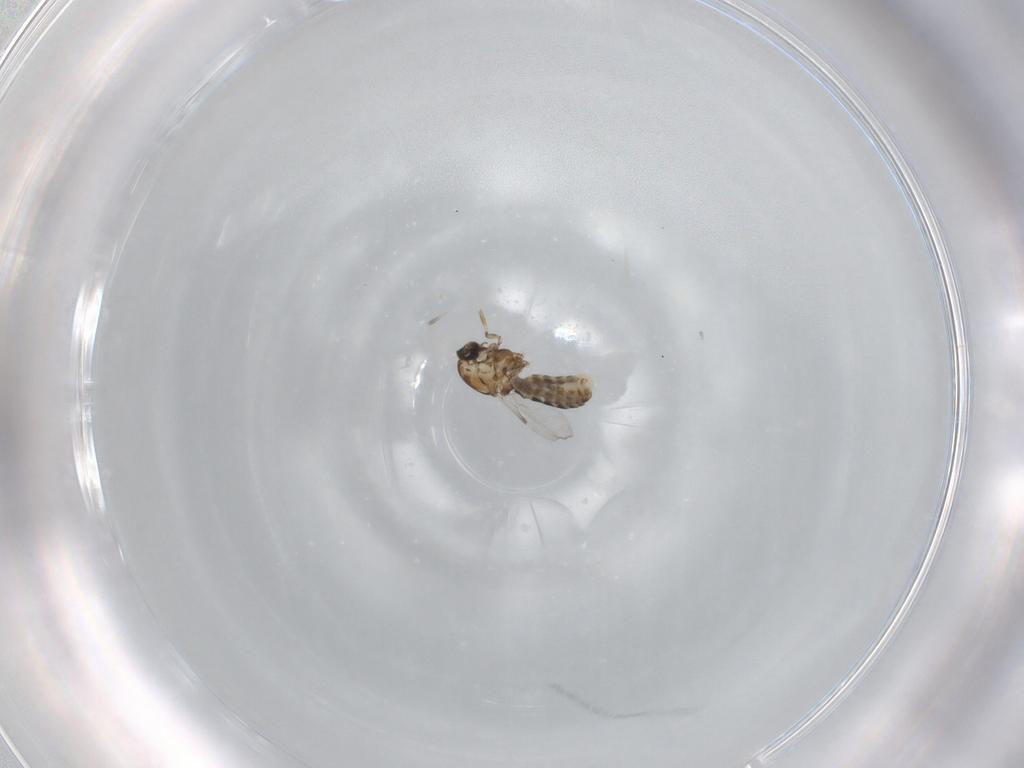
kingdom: Animalia
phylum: Arthropoda
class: Insecta
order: Diptera
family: Ceratopogonidae
